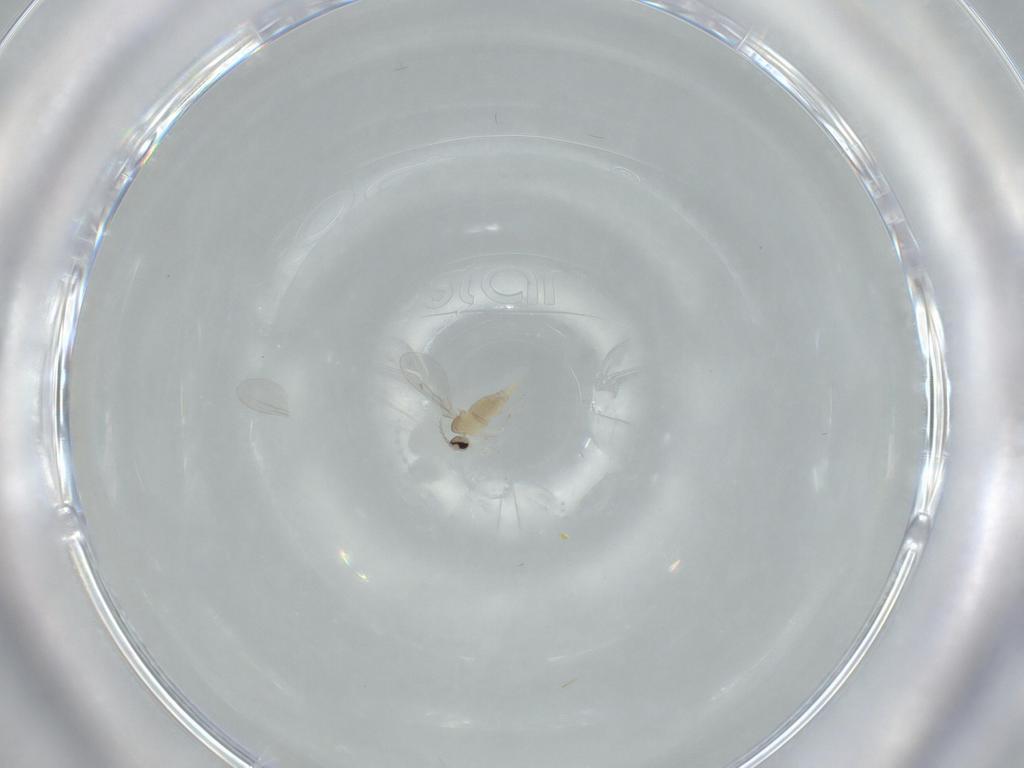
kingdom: Animalia
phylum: Arthropoda
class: Insecta
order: Diptera
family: Cecidomyiidae
